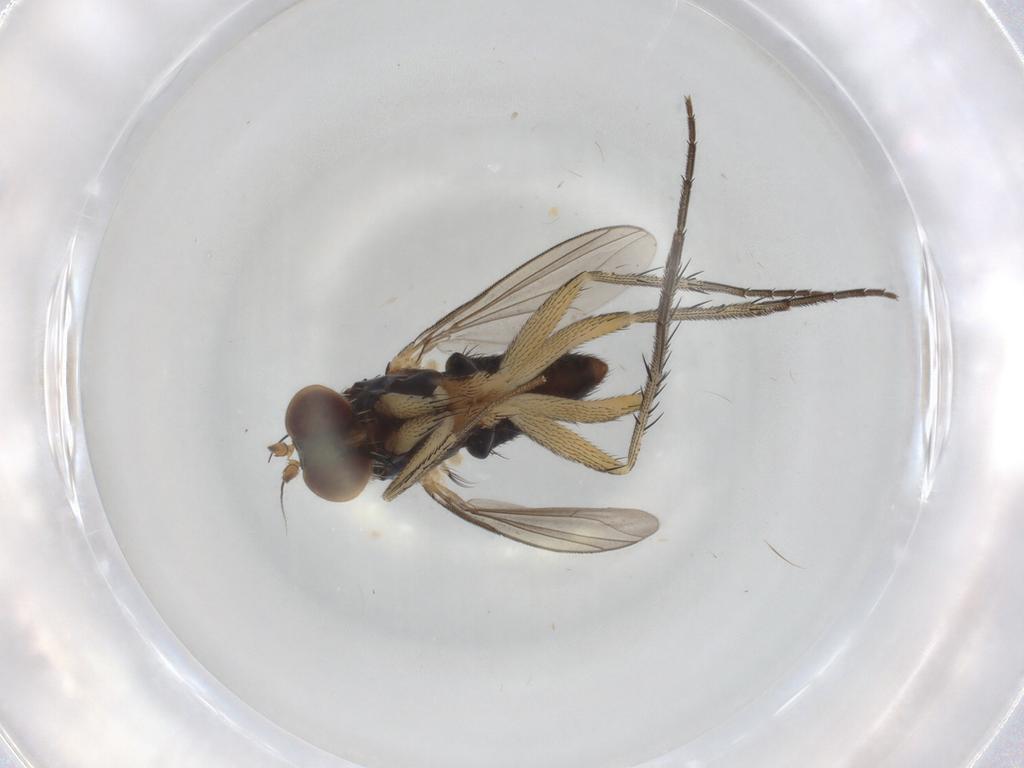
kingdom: Animalia
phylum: Arthropoda
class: Insecta
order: Diptera
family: Dolichopodidae
